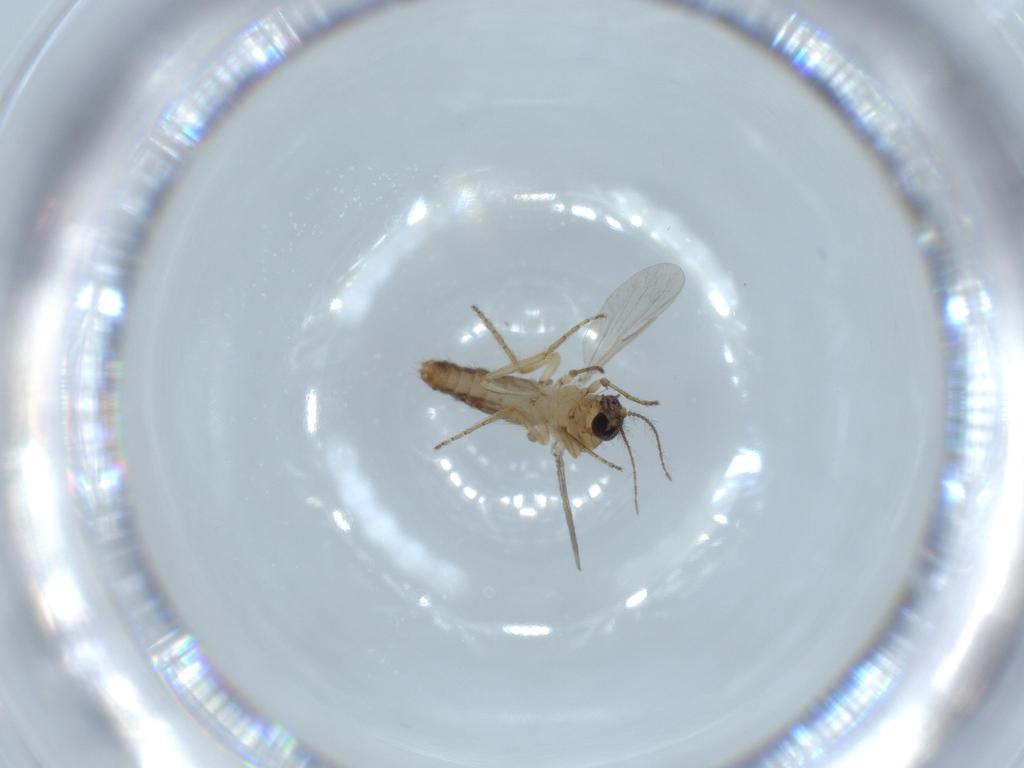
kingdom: Animalia
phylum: Arthropoda
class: Insecta
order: Diptera
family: Ceratopogonidae
